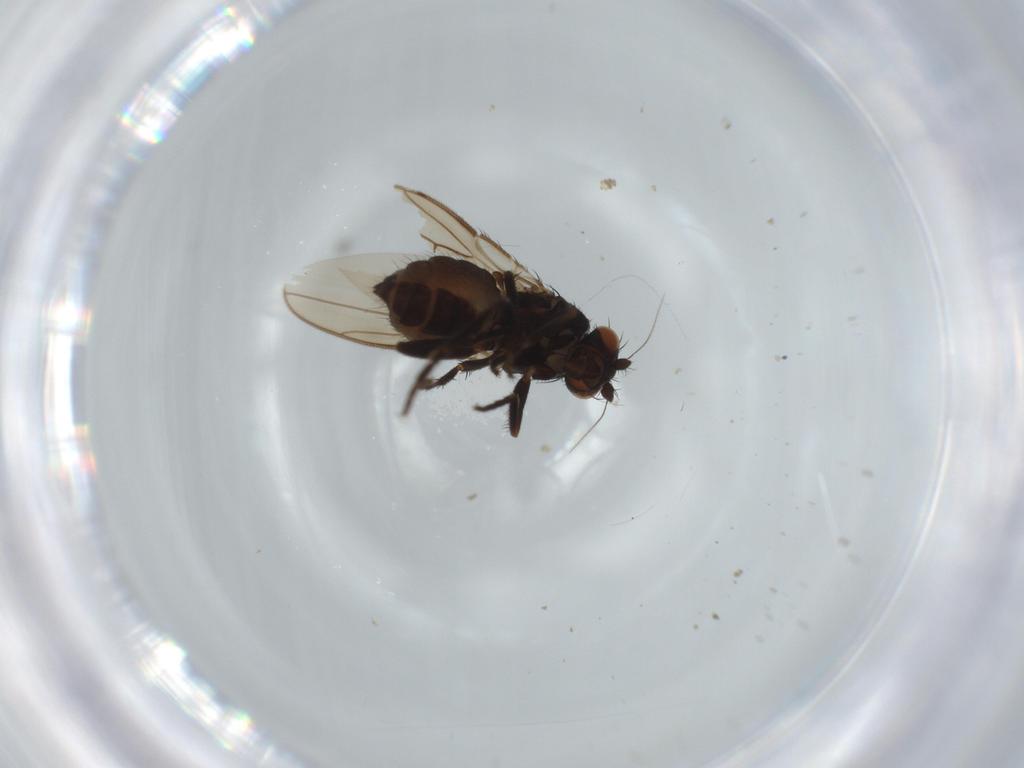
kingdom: Animalia
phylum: Arthropoda
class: Insecta
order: Diptera
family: Sphaeroceridae
